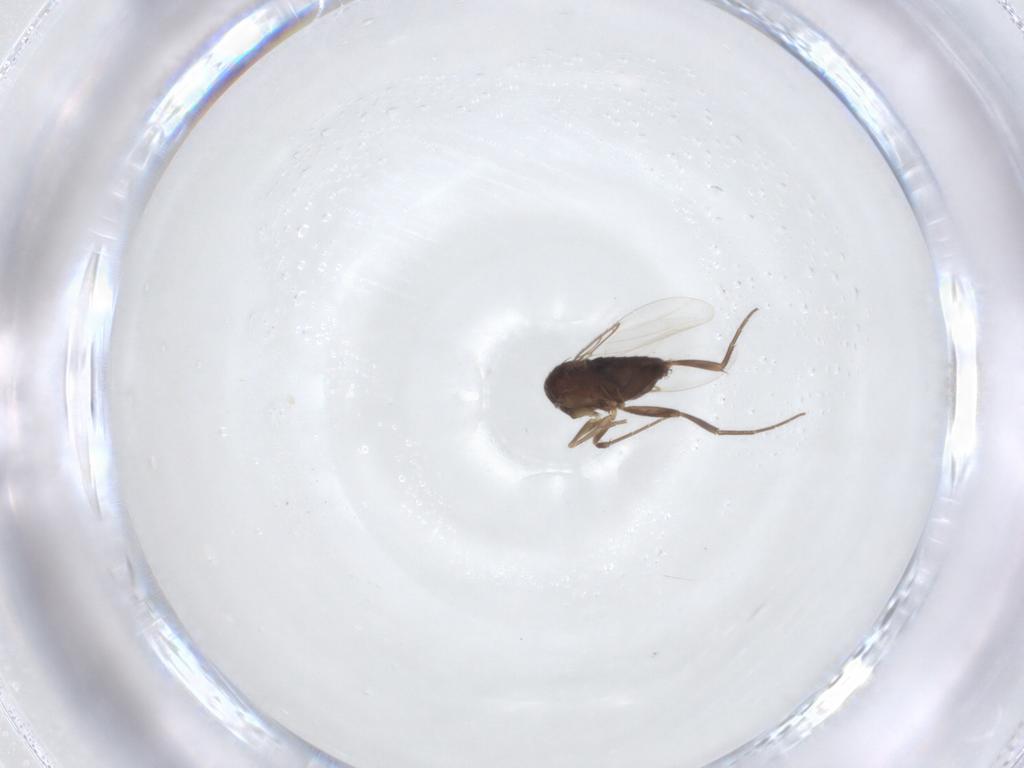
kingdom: Animalia
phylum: Arthropoda
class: Insecta
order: Diptera
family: Phoridae
